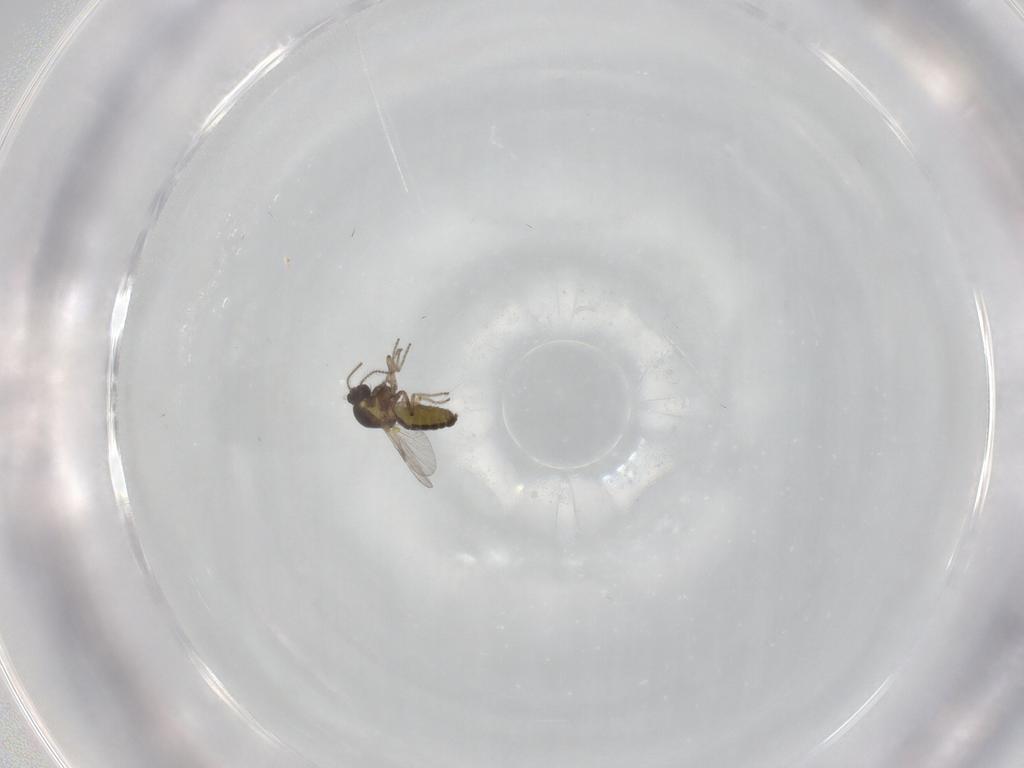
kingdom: Animalia
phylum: Arthropoda
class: Insecta
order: Diptera
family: Ceratopogonidae
